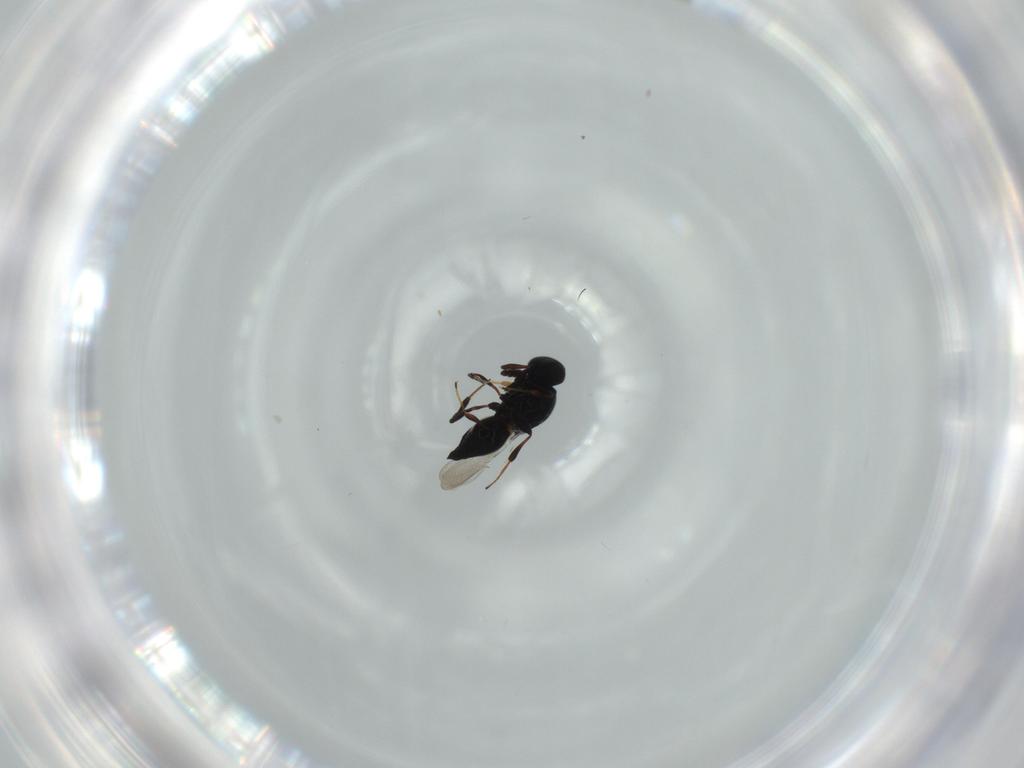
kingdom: Animalia
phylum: Arthropoda
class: Insecta
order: Hymenoptera
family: Platygastridae
